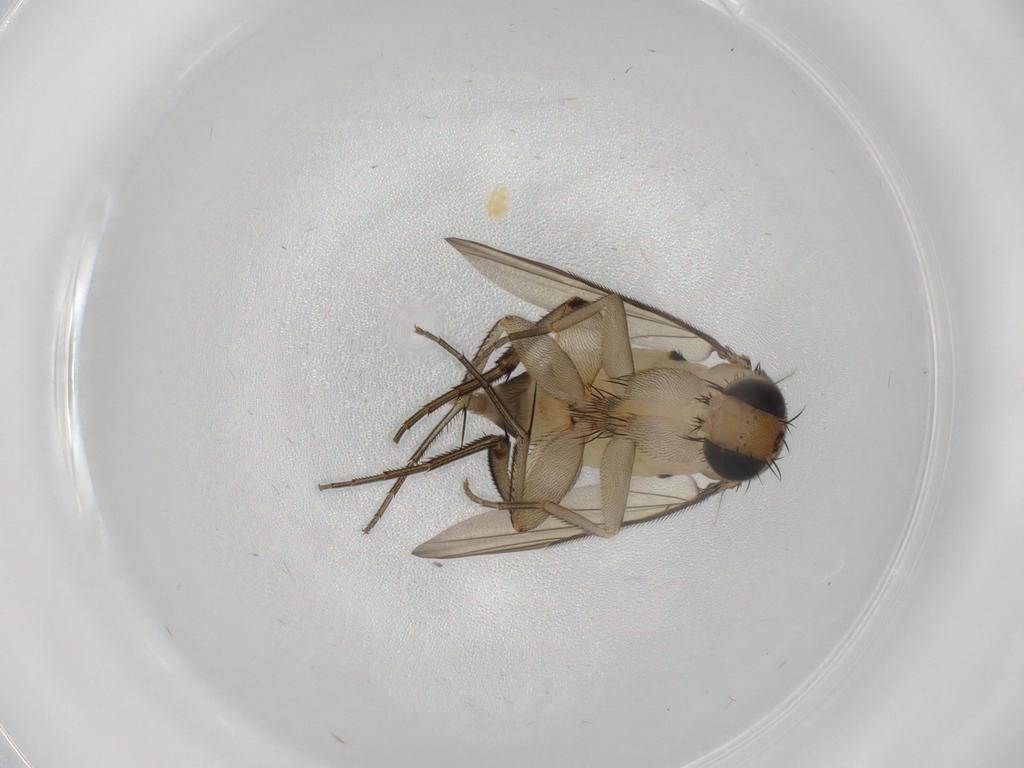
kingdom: Animalia
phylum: Arthropoda
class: Insecta
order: Diptera
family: Phoridae
